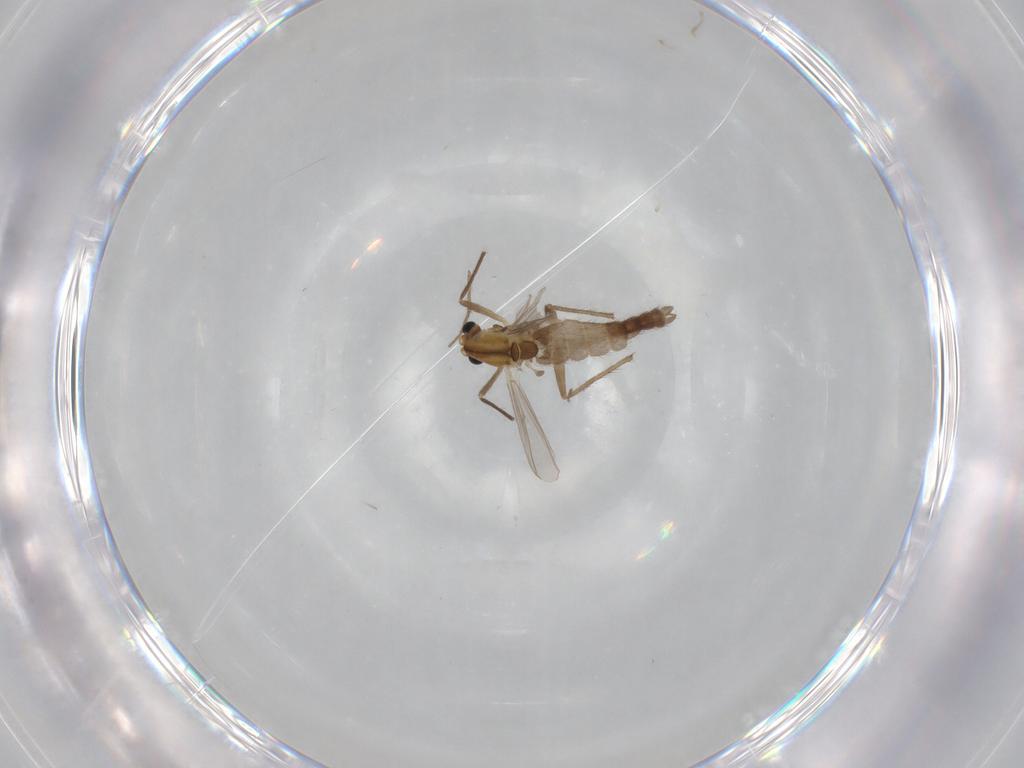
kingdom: Animalia
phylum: Arthropoda
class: Insecta
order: Diptera
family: Chironomidae
